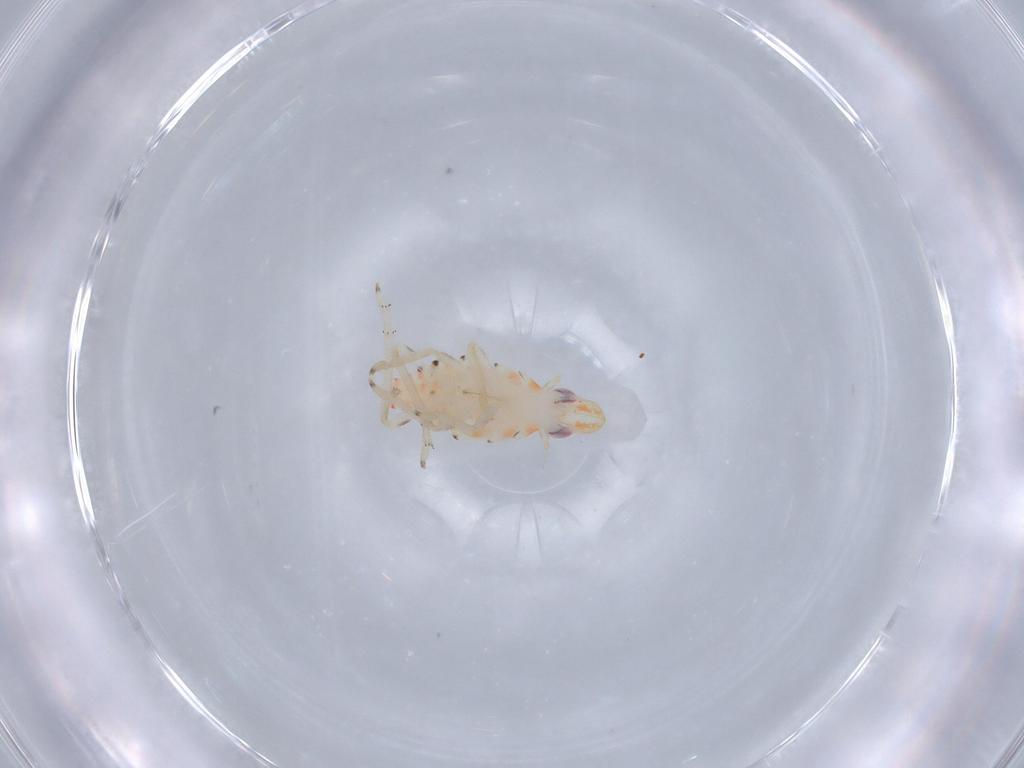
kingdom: Animalia
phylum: Arthropoda
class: Insecta
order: Hemiptera
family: Tropiduchidae
